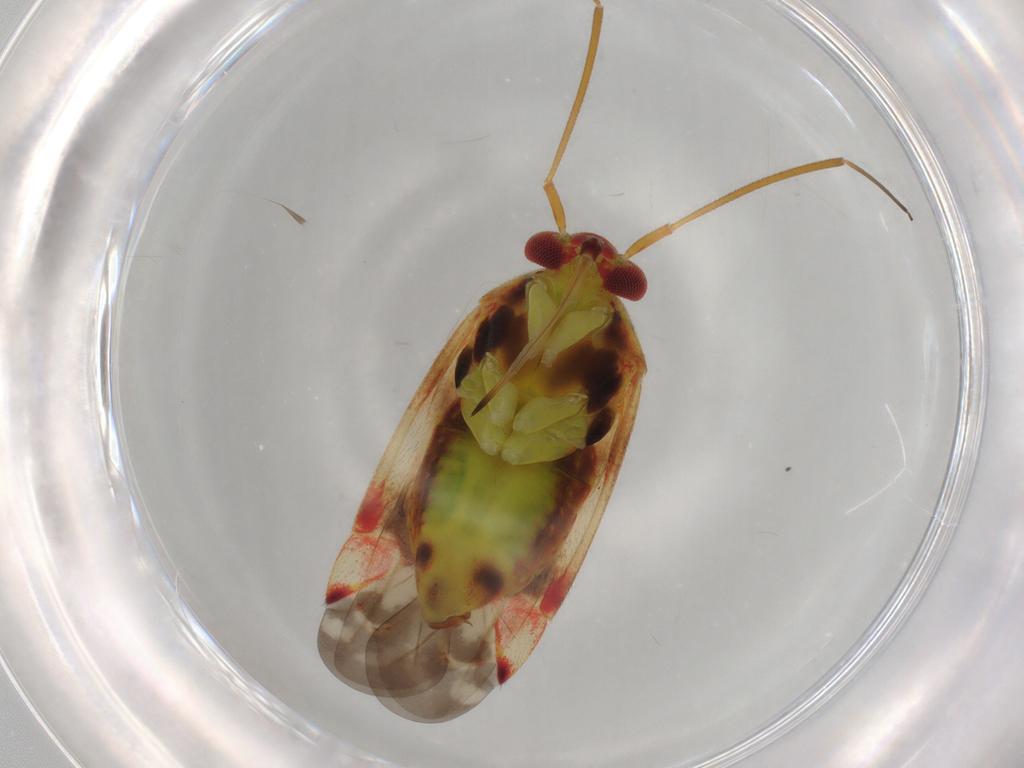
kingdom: Animalia
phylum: Arthropoda
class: Insecta
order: Hemiptera
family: Miridae
